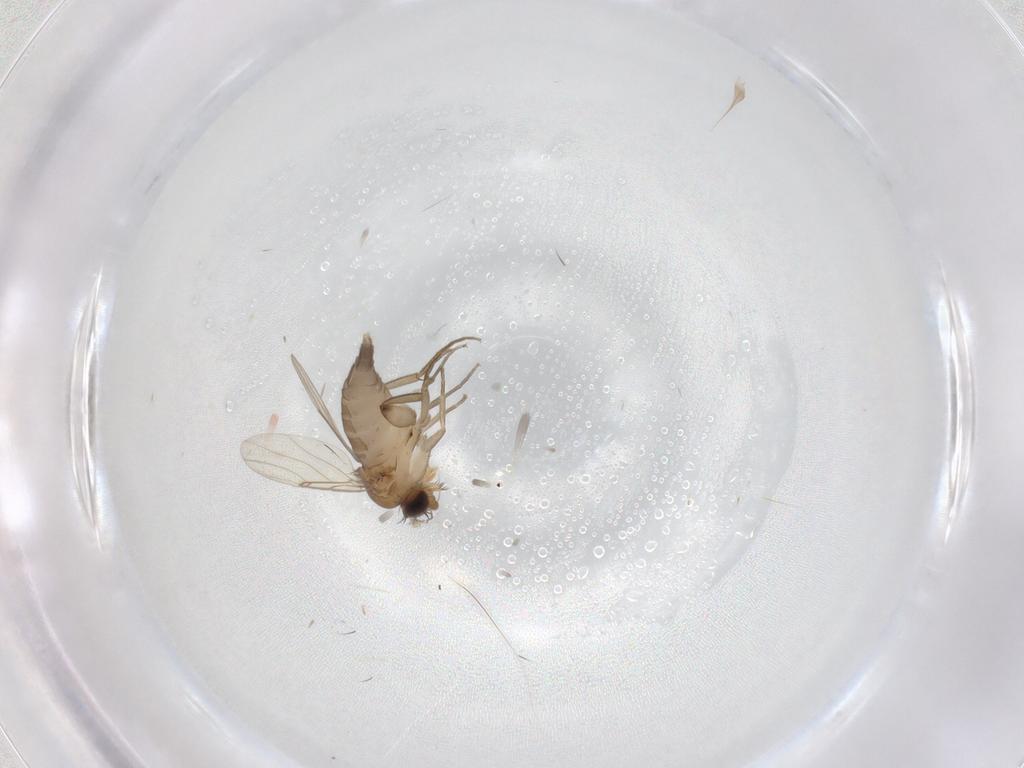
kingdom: Animalia
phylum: Arthropoda
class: Insecta
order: Diptera
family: Phoridae
